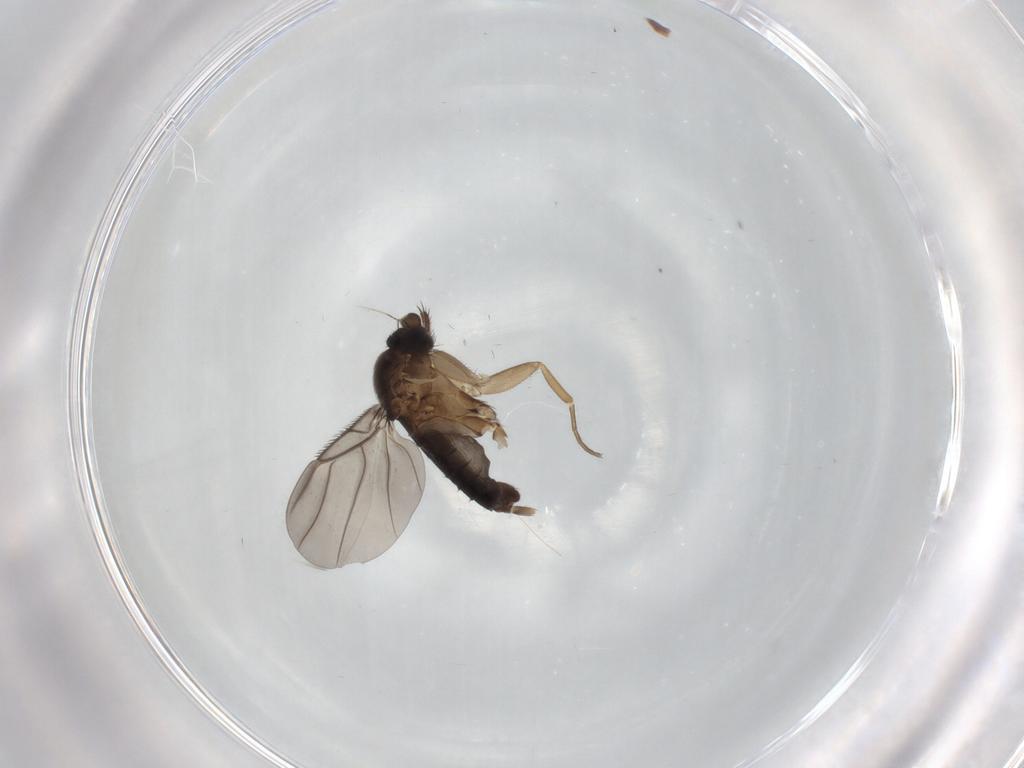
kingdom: Animalia
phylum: Arthropoda
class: Insecta
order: Diptera
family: Phoridae
